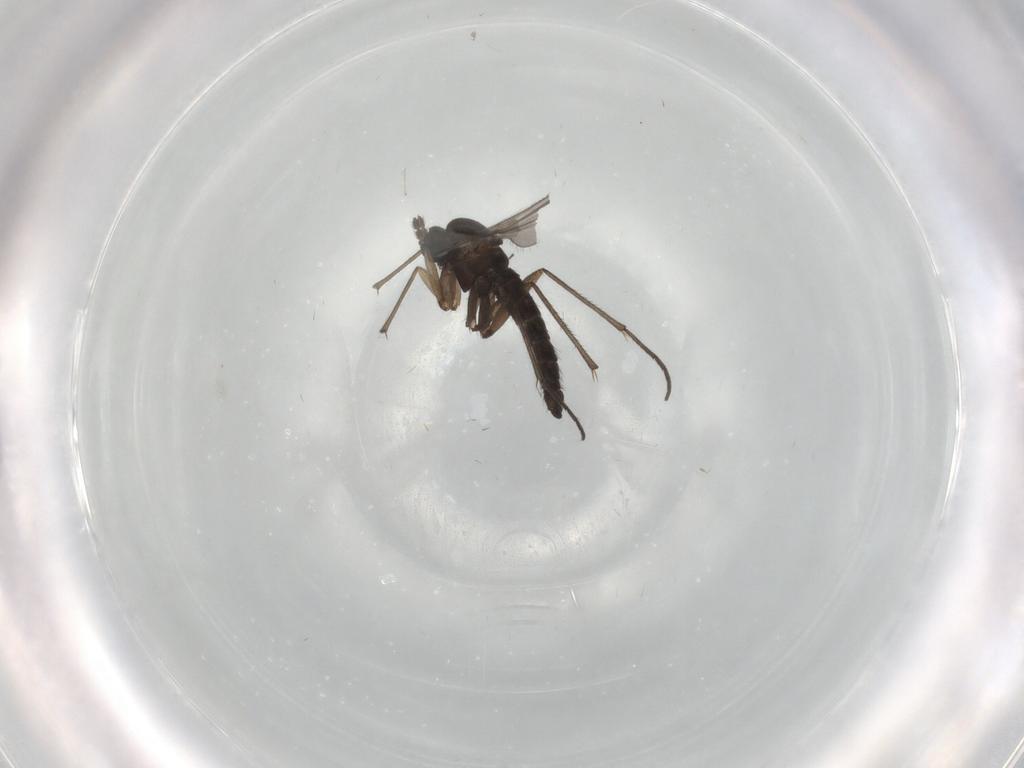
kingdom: Animalia
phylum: Arthropoda
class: Insecta
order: Diptera
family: Sciaridae
